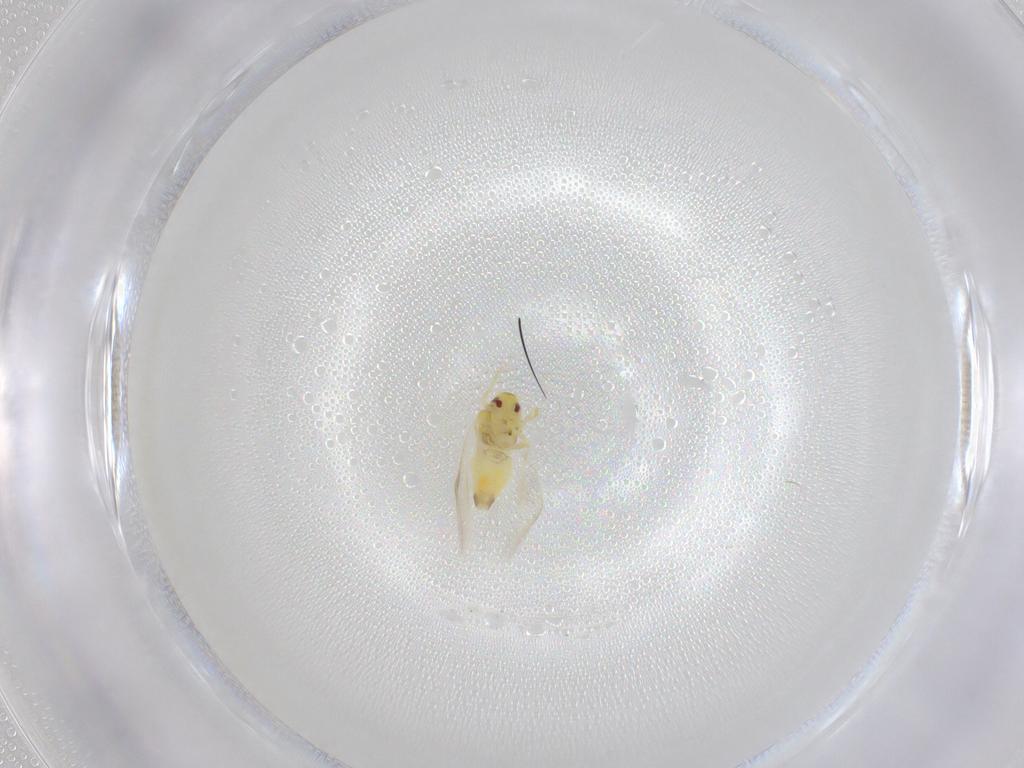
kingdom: Animalia
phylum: Arthropoda
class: Insecta
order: Hemiptera
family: Aleyrodidae
